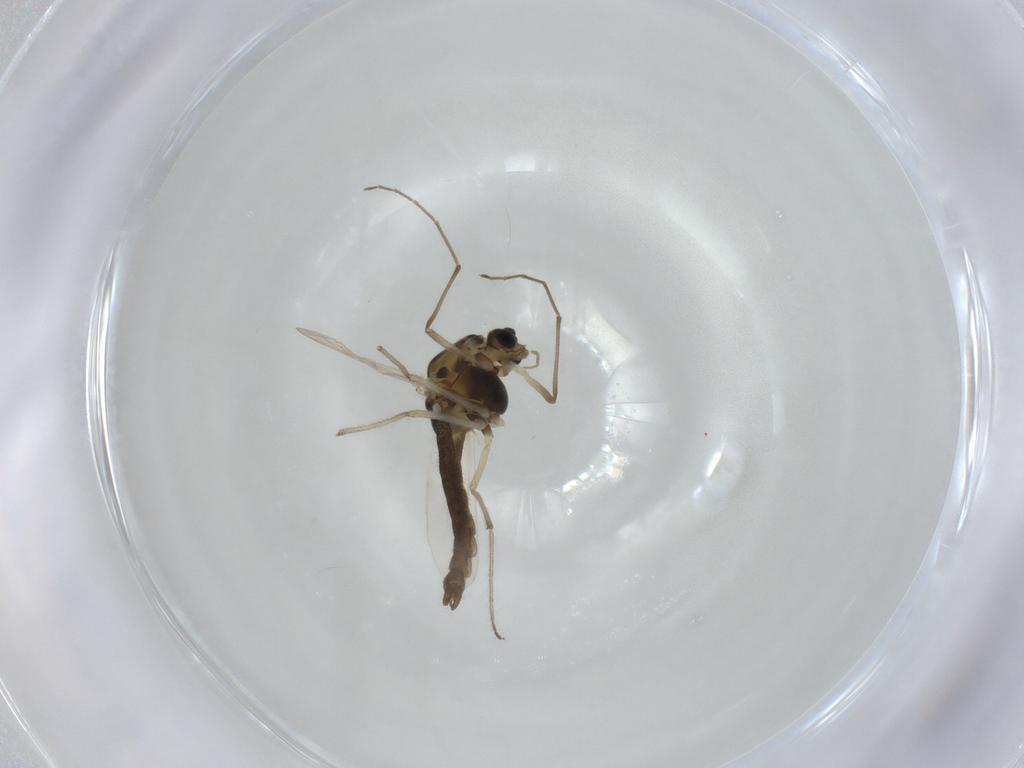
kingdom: Animalia
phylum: Arthropoda
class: Insecta
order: Diptera
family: Chironomidae
